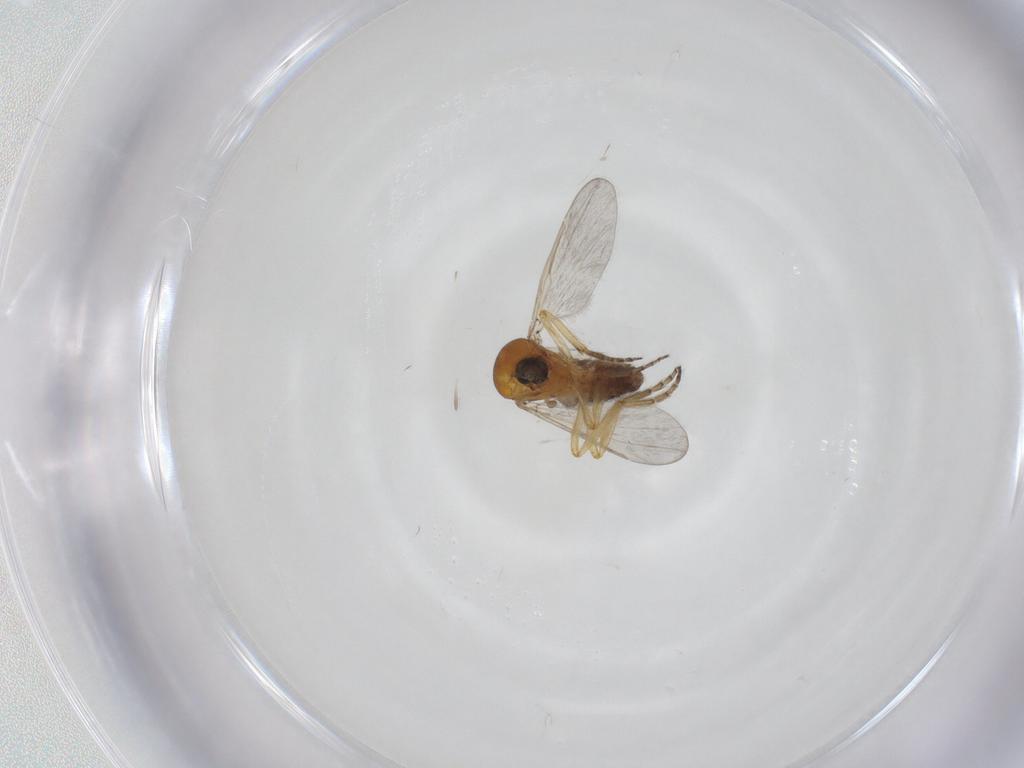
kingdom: Animalia
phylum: Arthropoda
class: Insecta
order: Diptera
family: Ceratopogonidae
